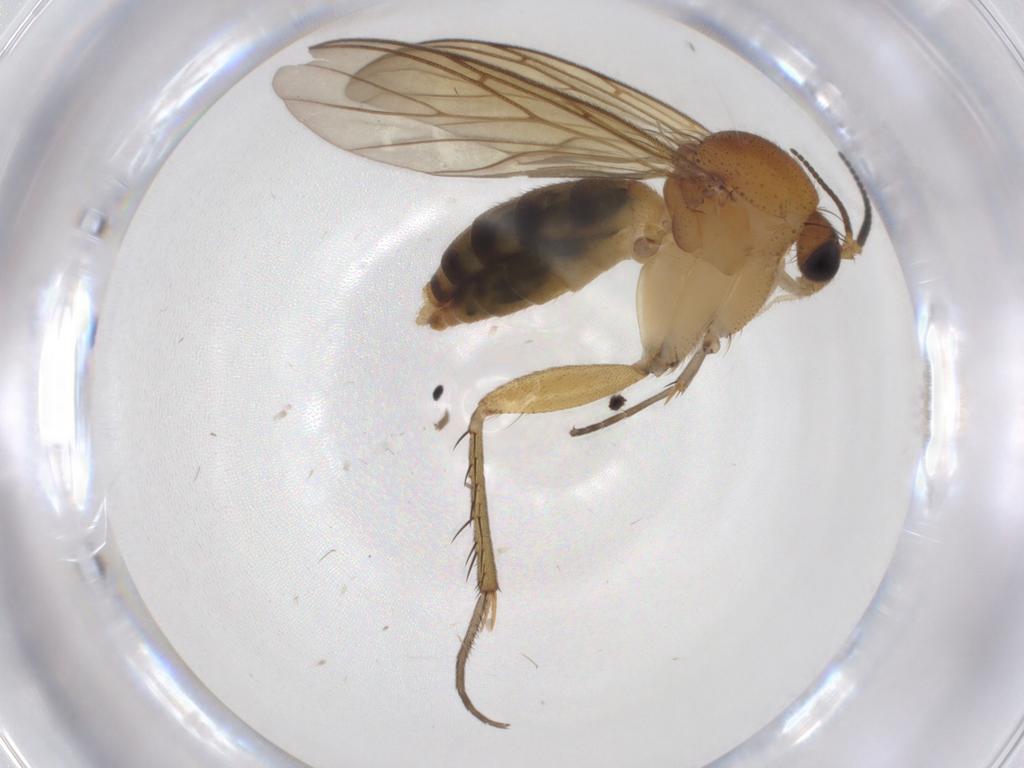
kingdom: Animalia
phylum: Arthropoda
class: Insecta
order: Diptera
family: Cecidomyiidae
